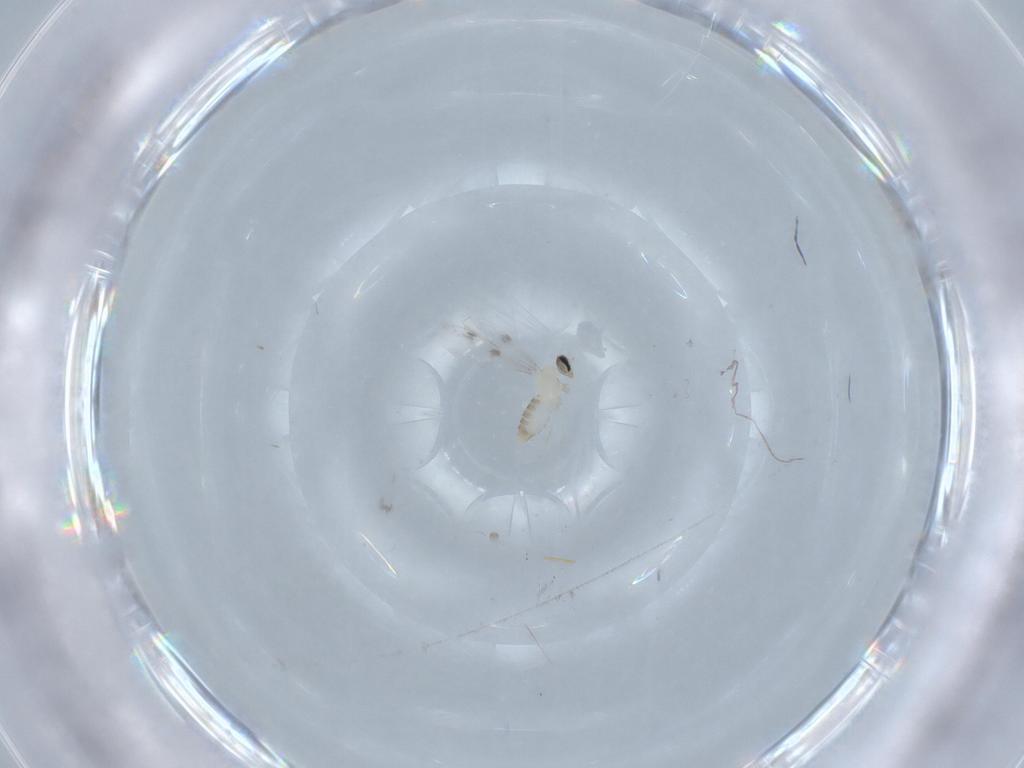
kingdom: Animalia
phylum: Arthropoda
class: Insecta
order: Diptera
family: Cecidomyiidae
